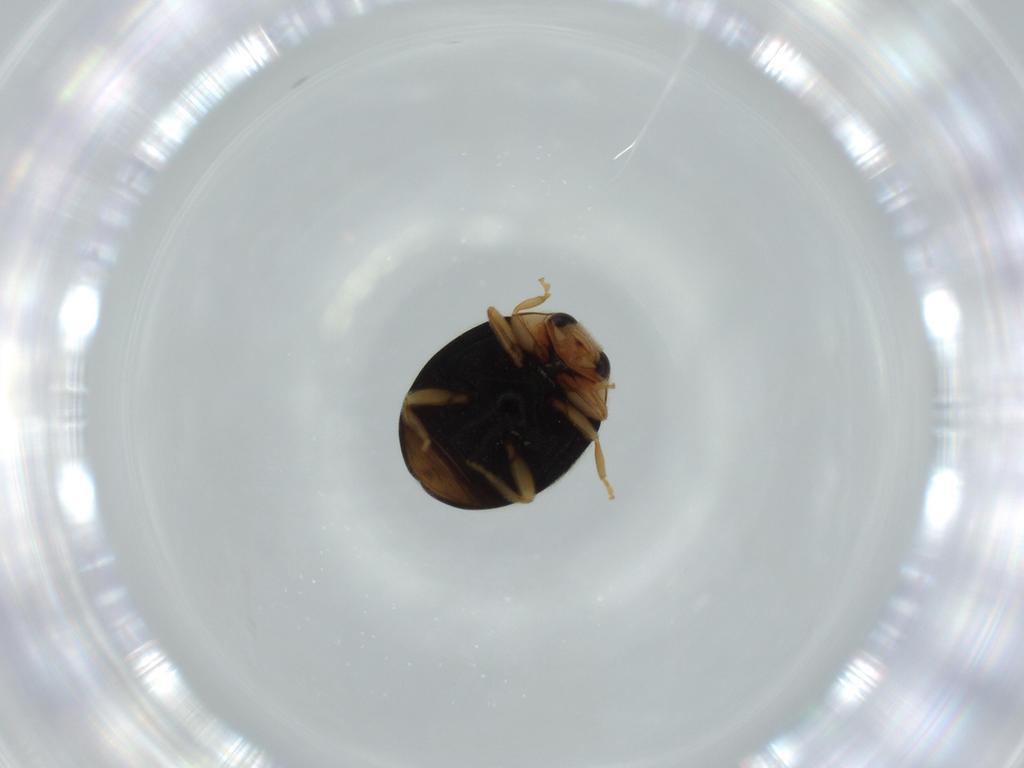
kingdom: Animalia
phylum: Arthropoda
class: Insecta
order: Coleoptera
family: Coccinellidae
